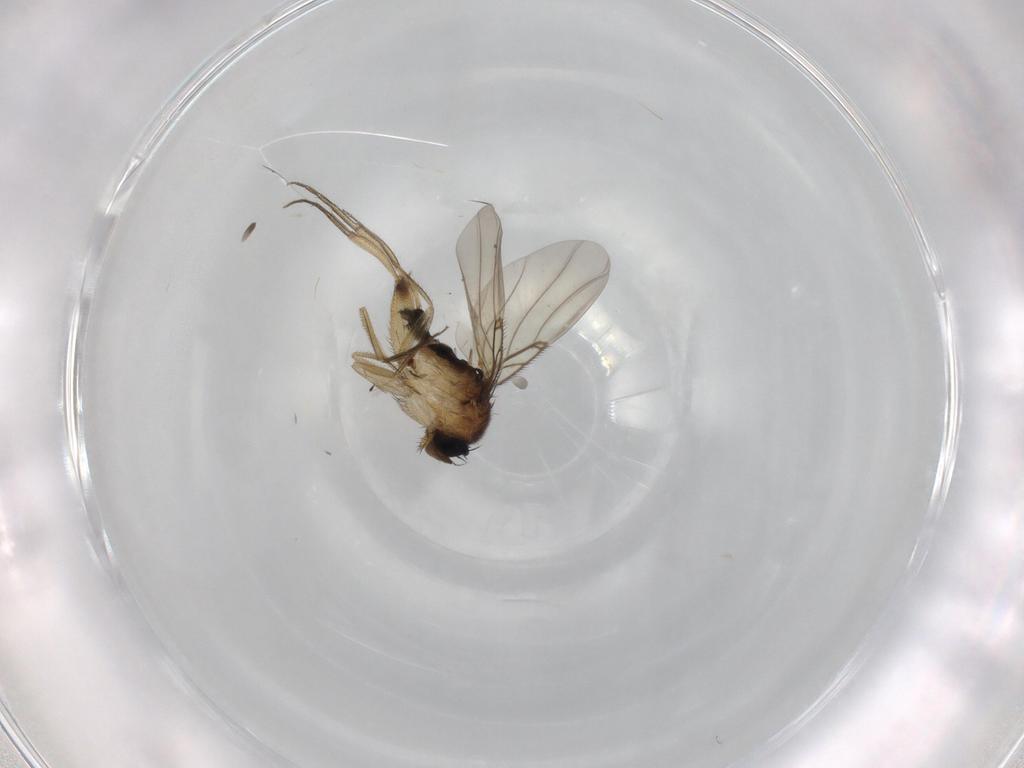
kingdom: Animalia
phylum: Arthropoda
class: Insecta
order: Diptera
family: Phoridae
